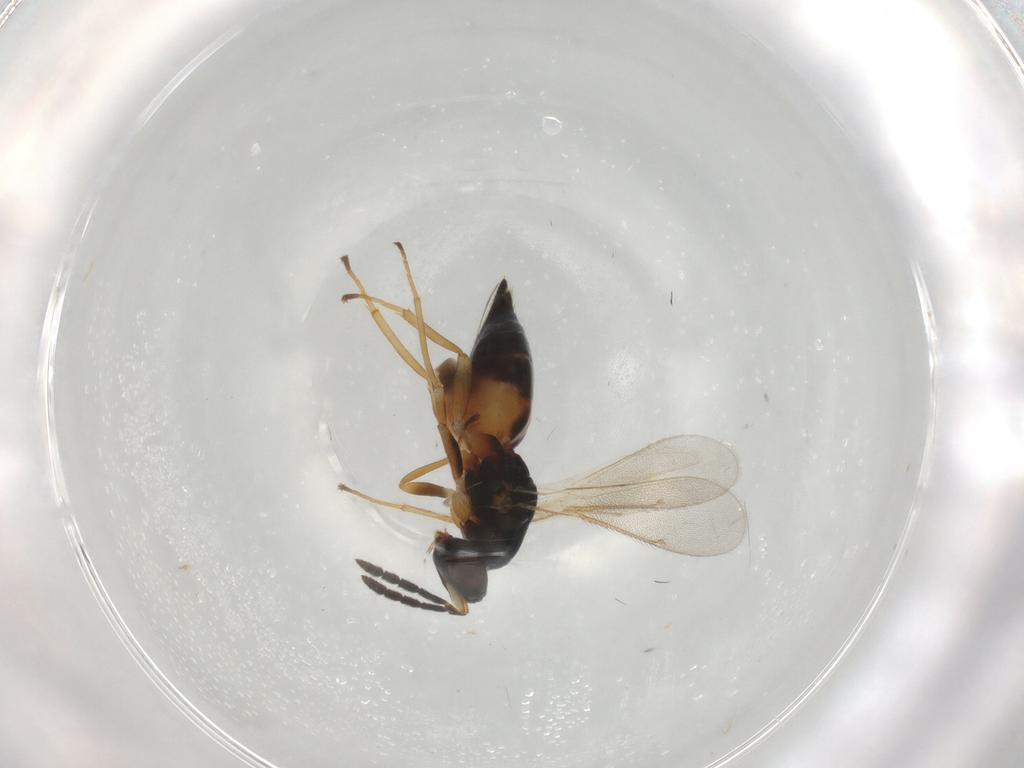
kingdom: Animalia
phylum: Arthropoda
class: Insecta
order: Hymenoptera
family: Eulophidae
